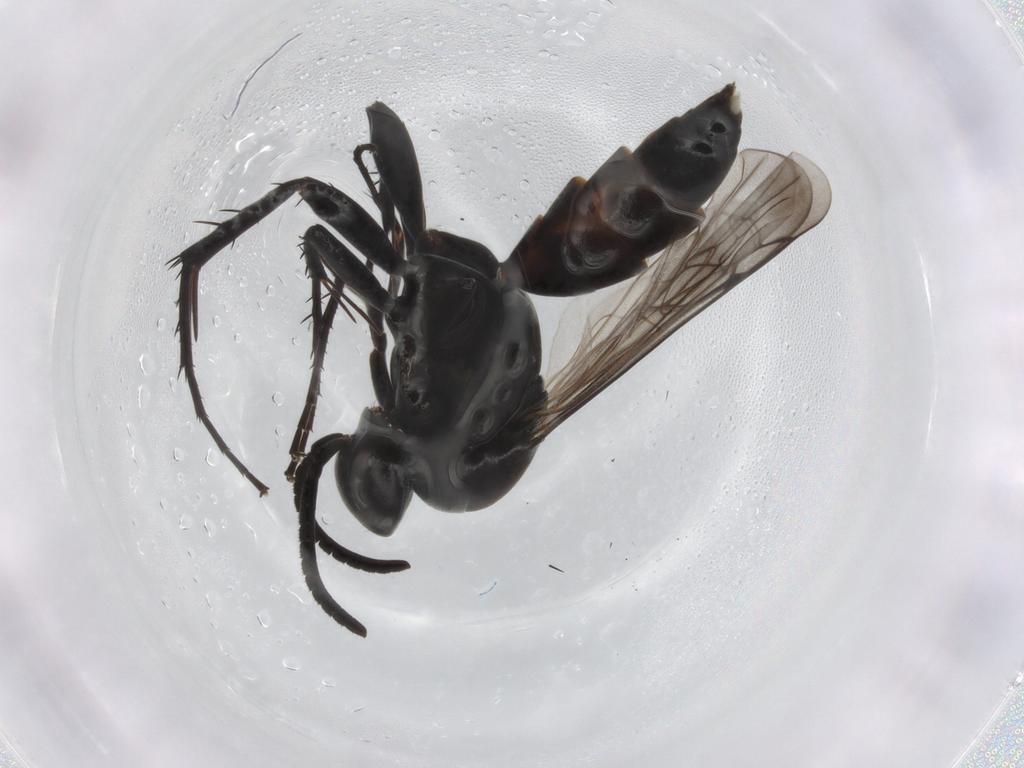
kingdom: Animalia
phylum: Arthropoda
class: Insecta
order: Hymenoptera
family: Pompilidae
